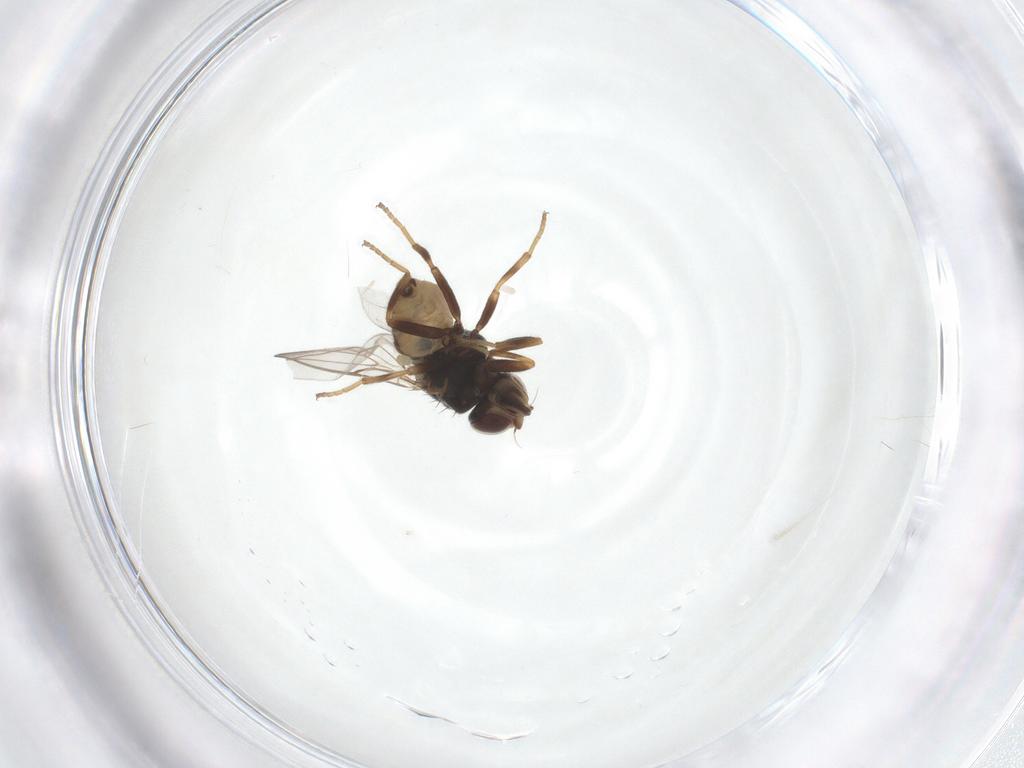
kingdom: Animalia
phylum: Arthropoda
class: Insecta
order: Diptera
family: Chloropidae
